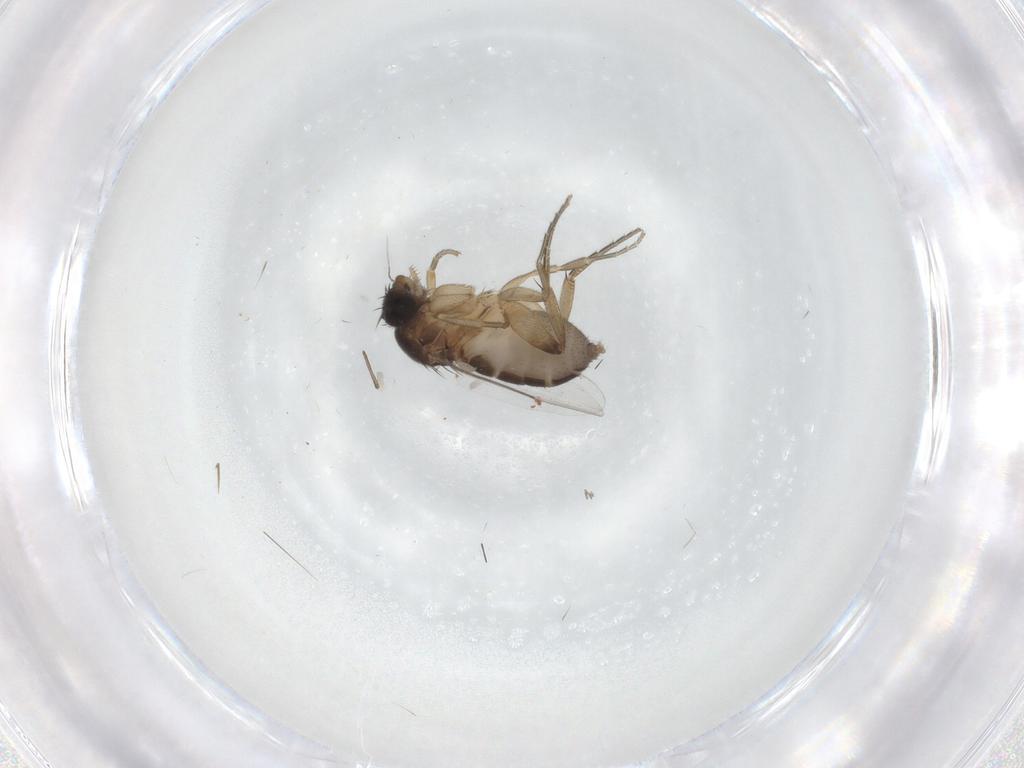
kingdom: Animalia
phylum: Arthropoda
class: Insecta
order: Diptera
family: Phoridae
